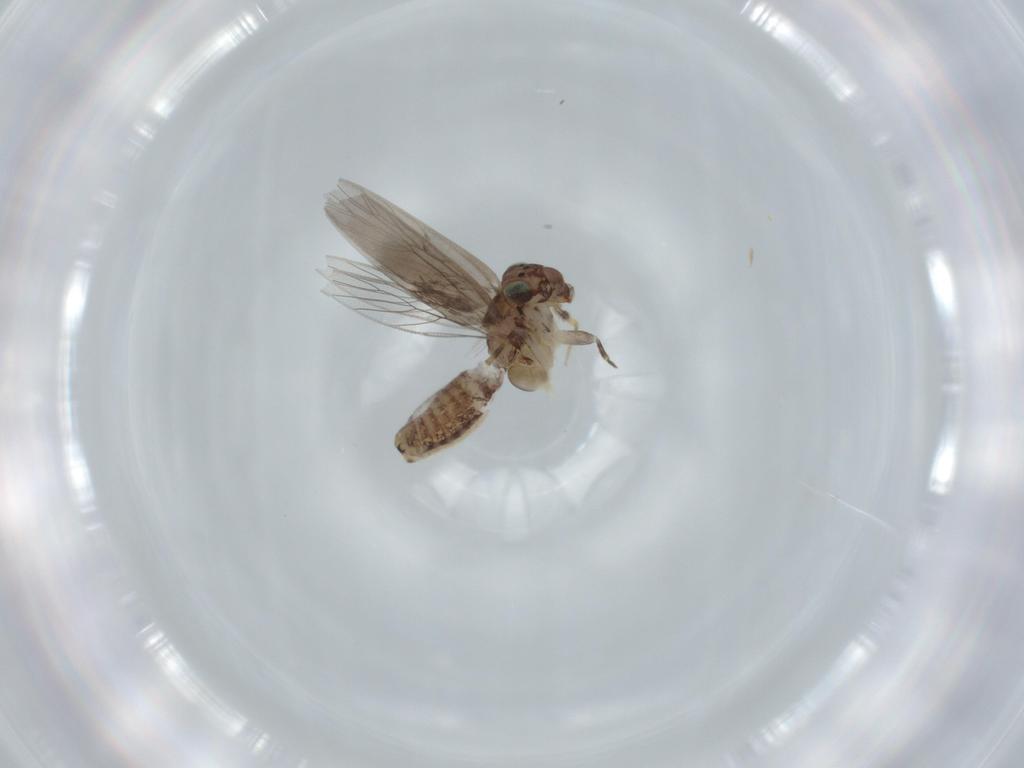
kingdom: Animalia
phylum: Arthropoda
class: Insecta
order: Psocodea
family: Lepidopsocidae
